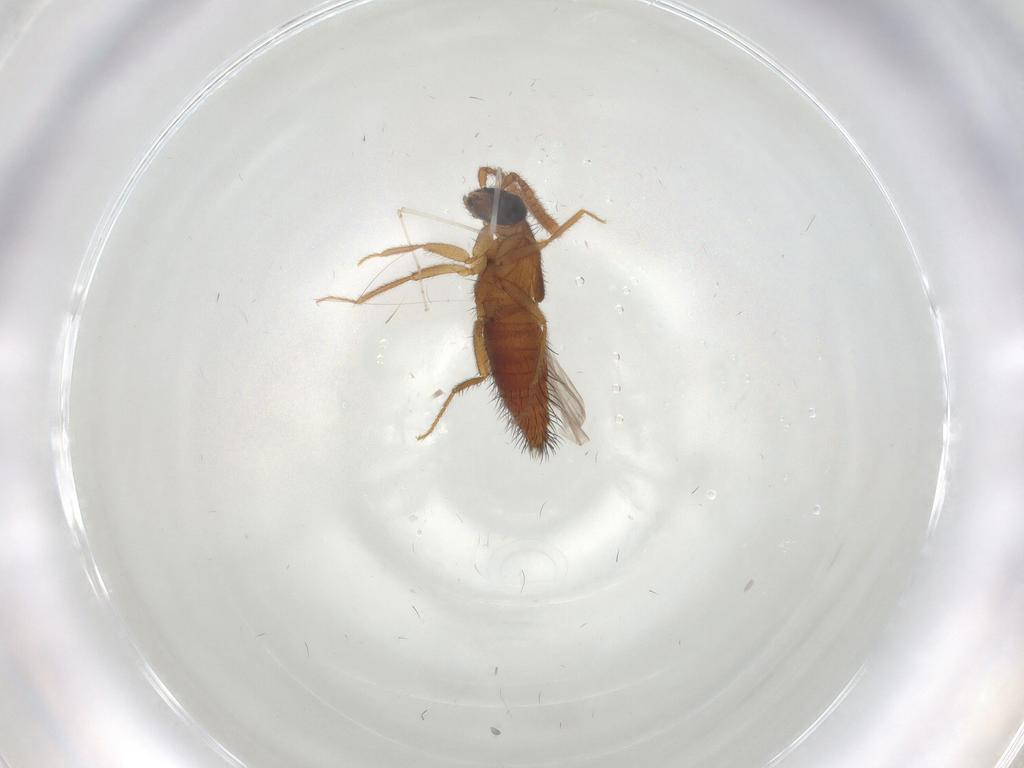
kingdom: Animalia
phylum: Arthropoda
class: Insecta
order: Coleoptera
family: Staphylinidae
